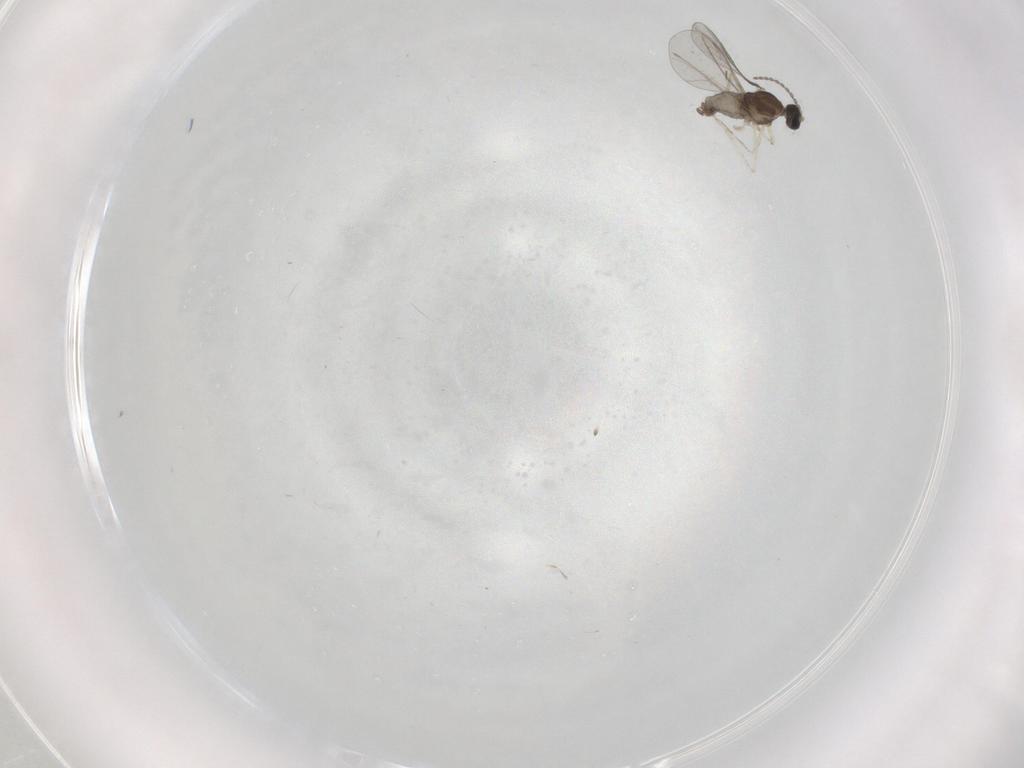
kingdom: Animalia
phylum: Arthropoda
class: Insecta
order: Diptera
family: Cecidomyiidae
